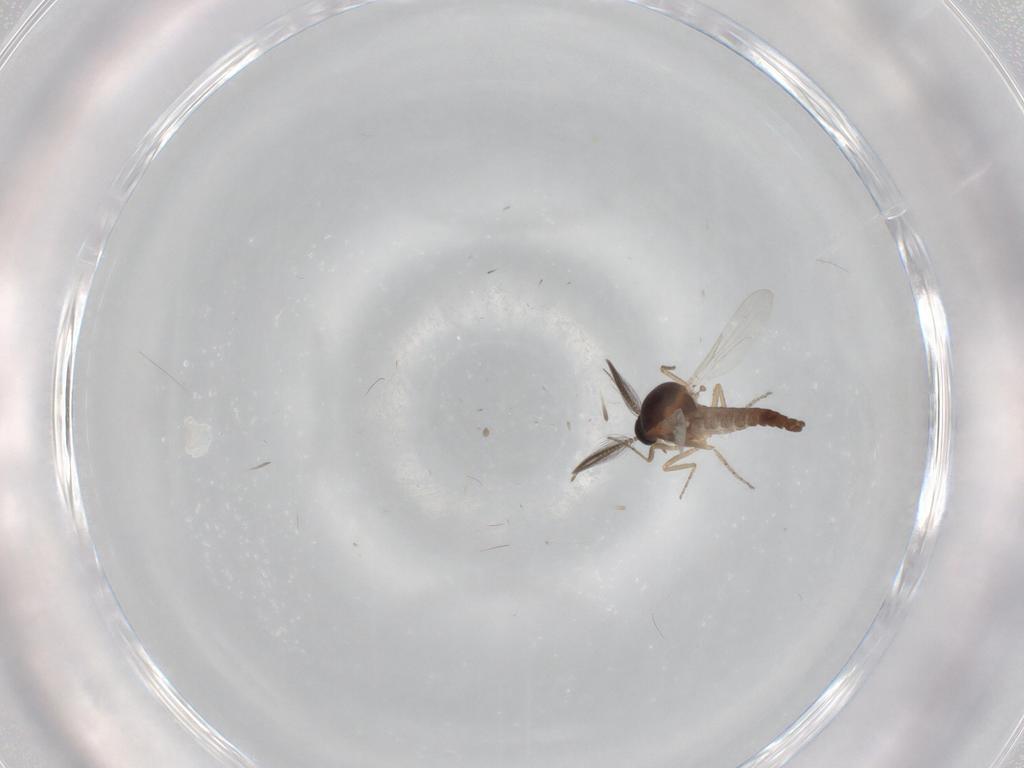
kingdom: Animalia
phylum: Arthropoda
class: Insecta
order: Diptera
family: Ceratopogonidae
